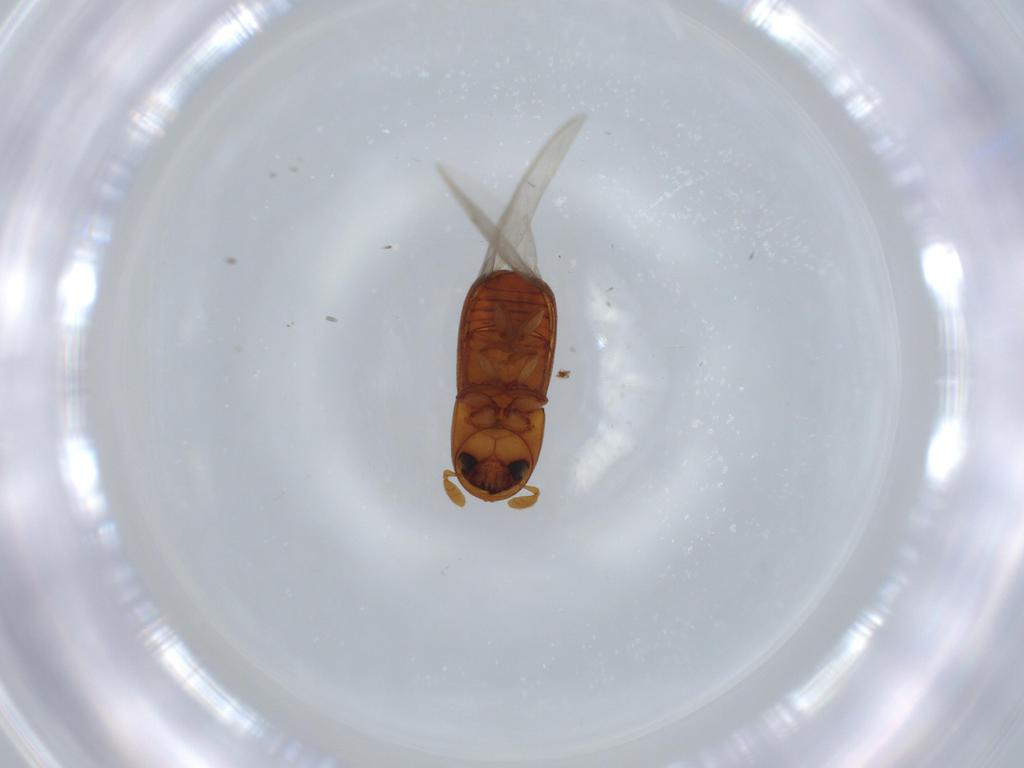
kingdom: Animalia
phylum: Arthropoda
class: Insecta
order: Coleoptera
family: Curculionidae
